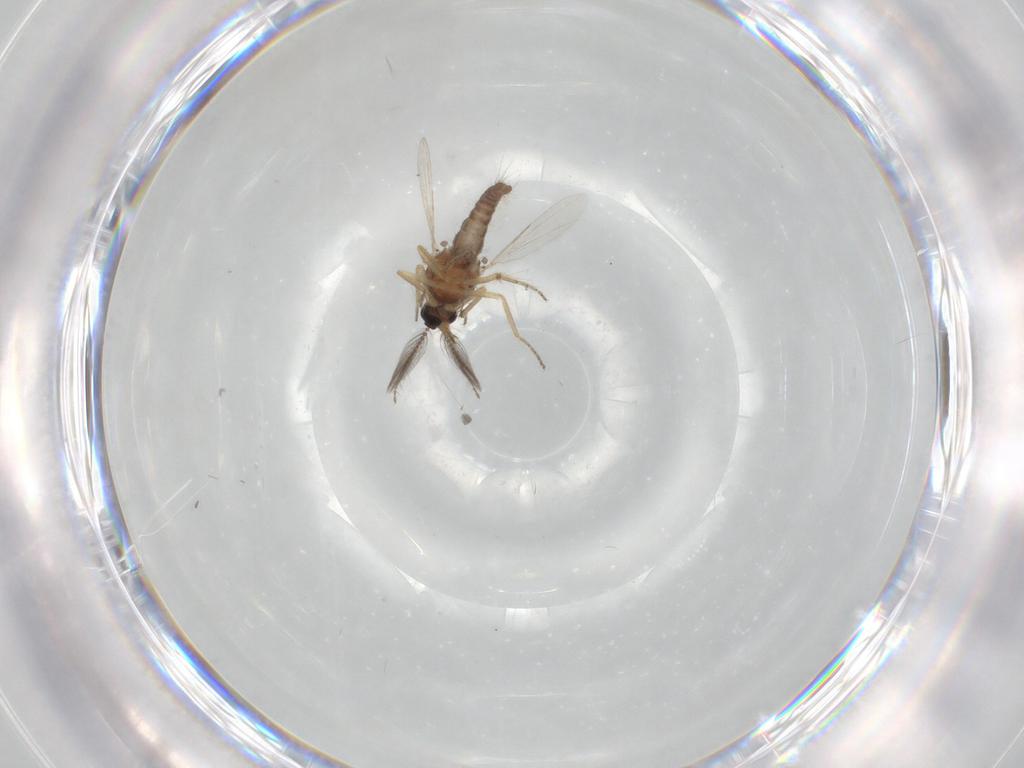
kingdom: Animalia
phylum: Arthropoda
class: Insecta
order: Diptera
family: Ceratopogonidae
